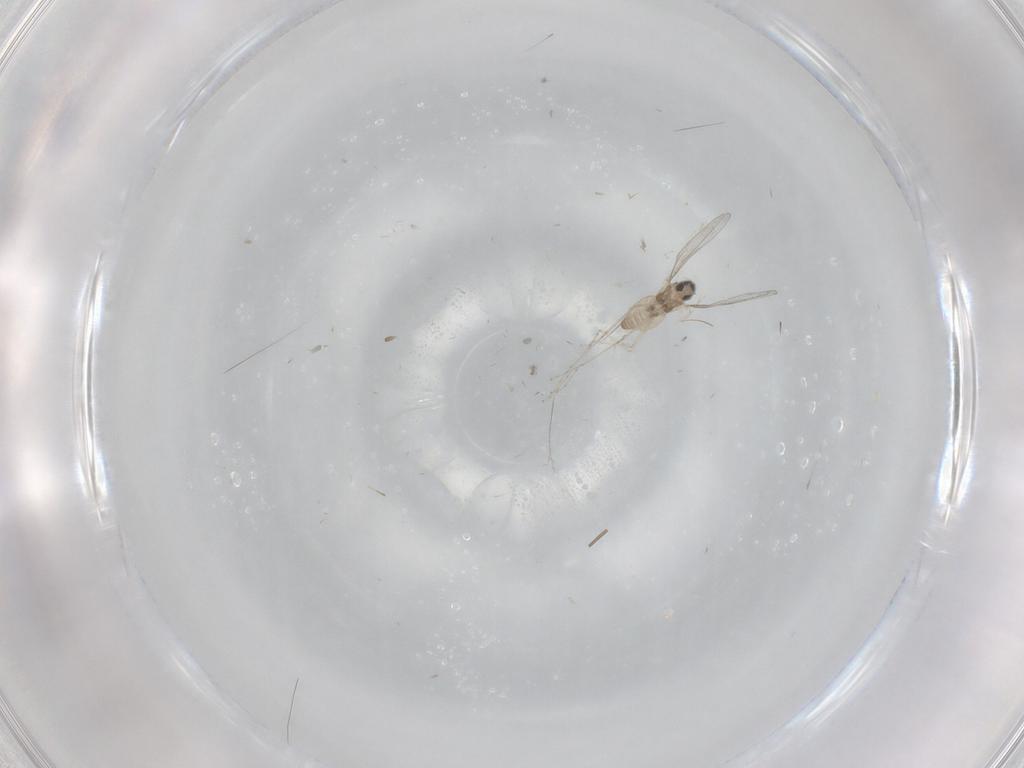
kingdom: Animalia
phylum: Arthropoda
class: Insecta
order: Diptera
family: Cecidomyiidae
